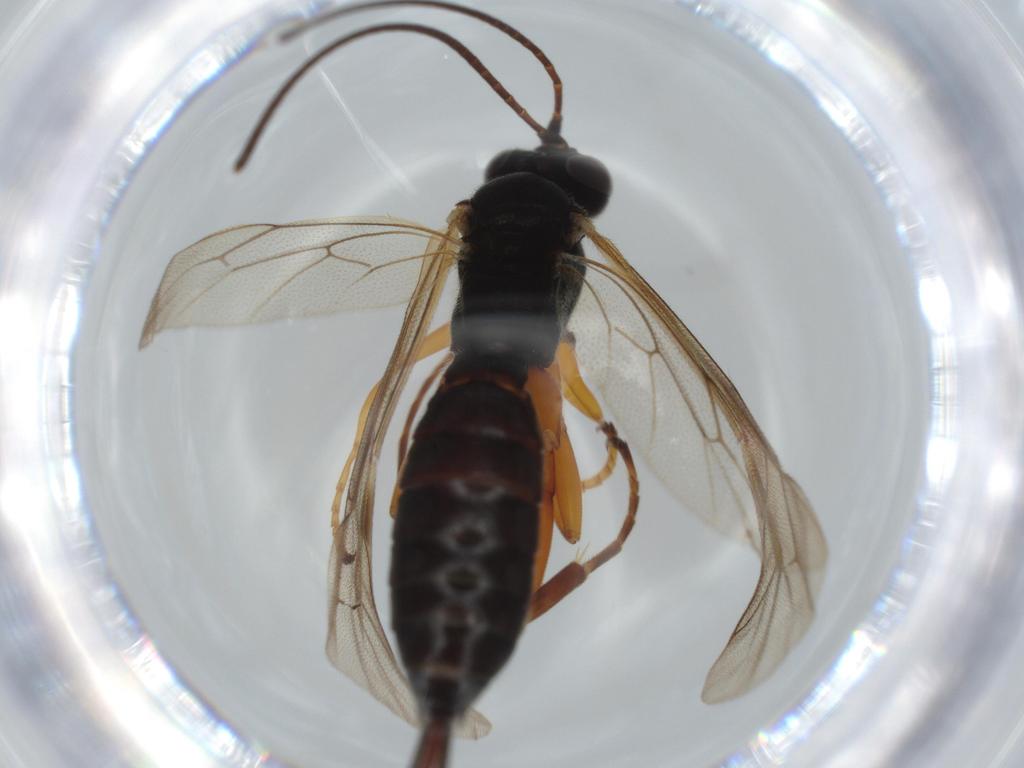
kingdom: Animalia
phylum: Arthropoda
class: Insecta
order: Hymenoptera
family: Ichneumonidae
